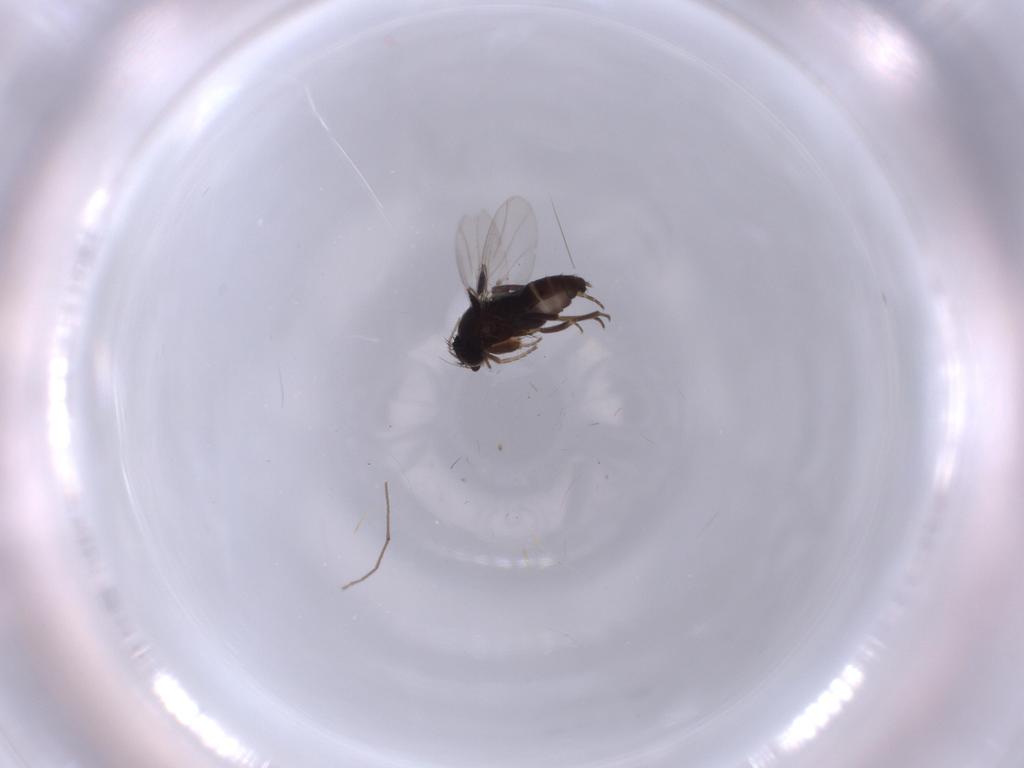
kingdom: Animalia
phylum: Arthropoda
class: Insecta
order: Diptera
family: Phoridae
